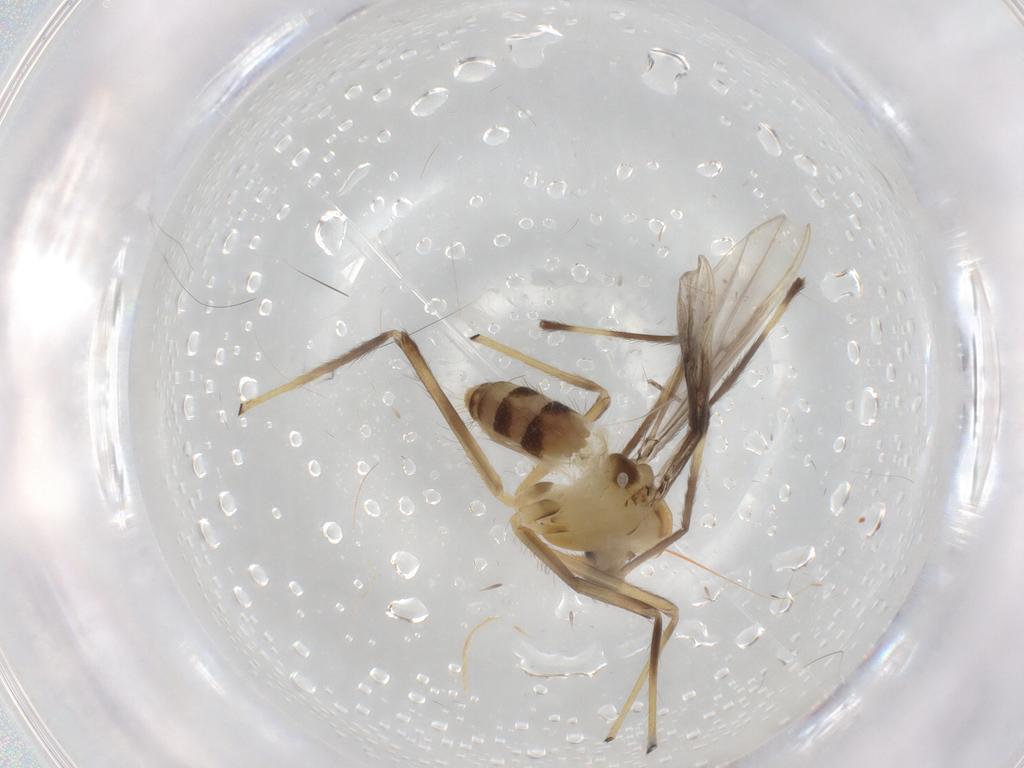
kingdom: Animalia
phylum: Arthropoda
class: Insecta
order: Diptera
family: Chironomidae
